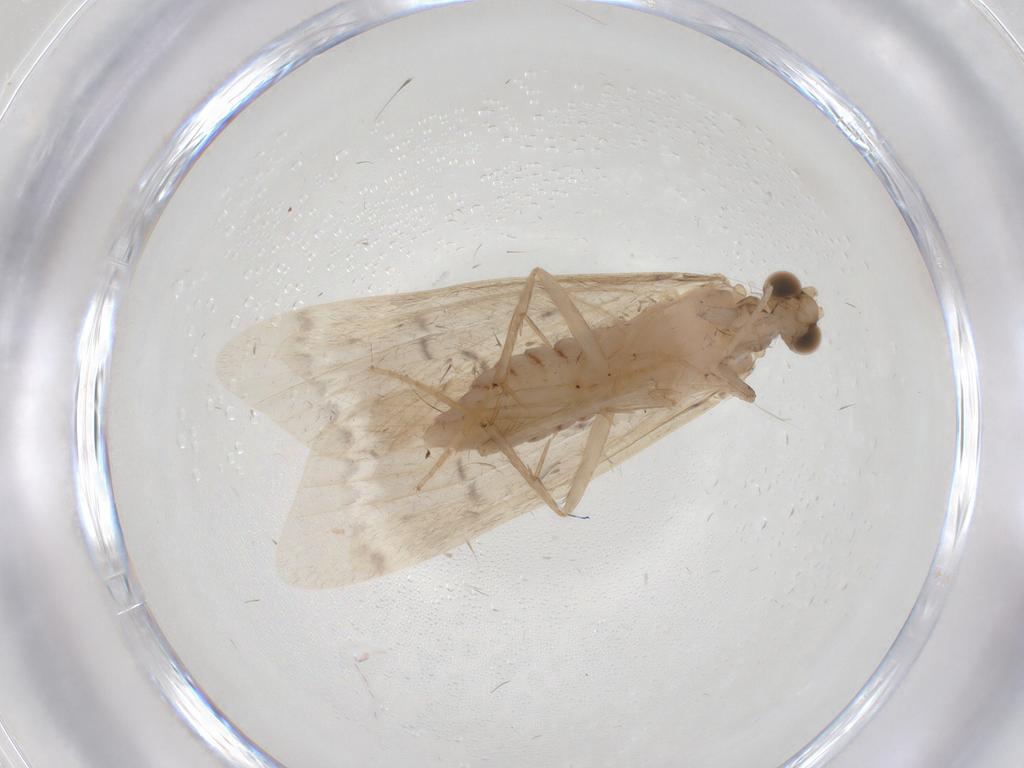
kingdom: Animalia
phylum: Arthropoda
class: Insecta
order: Trichoptera
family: Hydropsychidae
